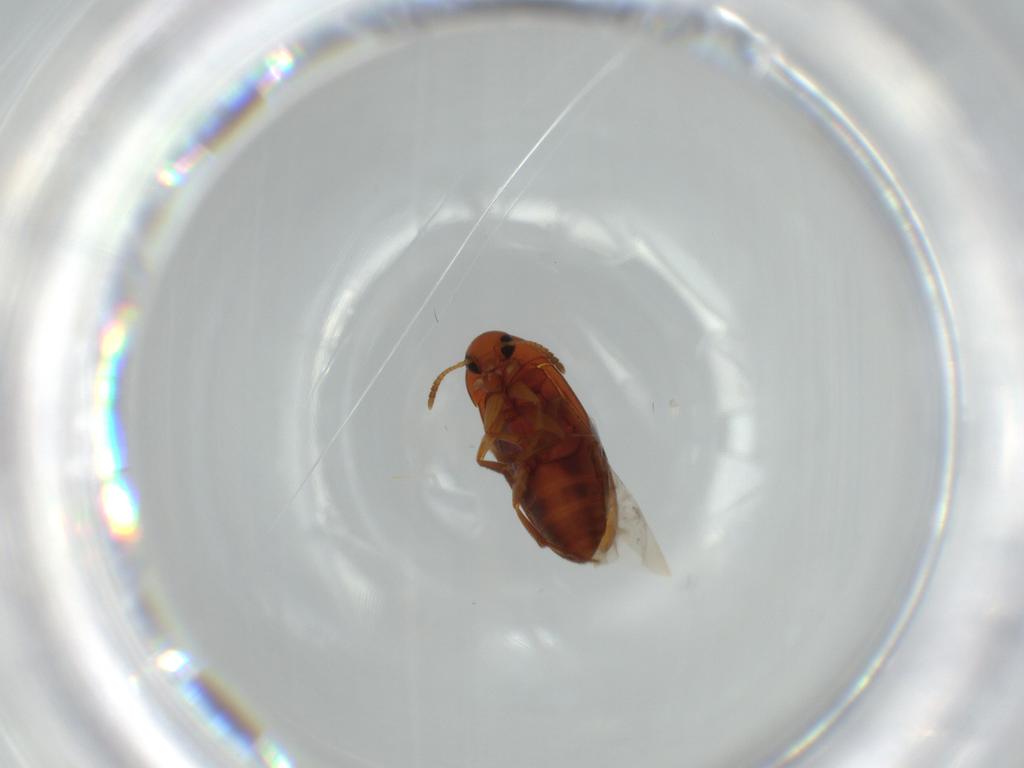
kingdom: Animalia
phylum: Arthropoda
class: Insecta
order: Coleoptera
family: Scraptiidae
